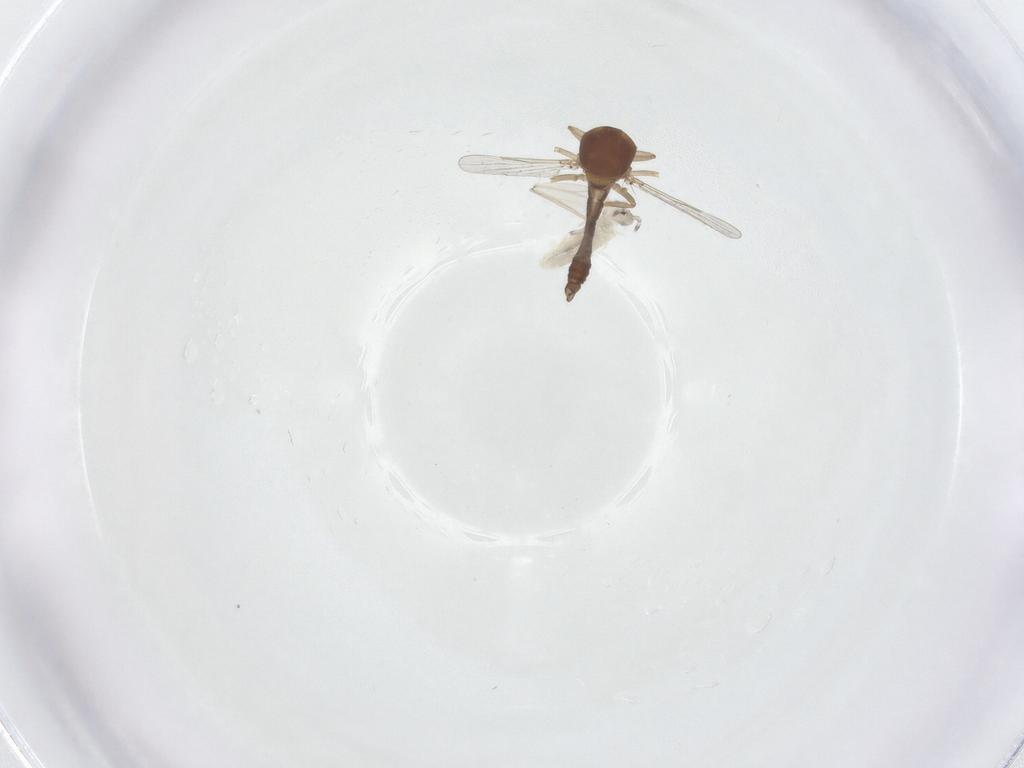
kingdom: Animalia
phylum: Arthropoda
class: Insecta
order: Diptera
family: Ceratopogonidae
